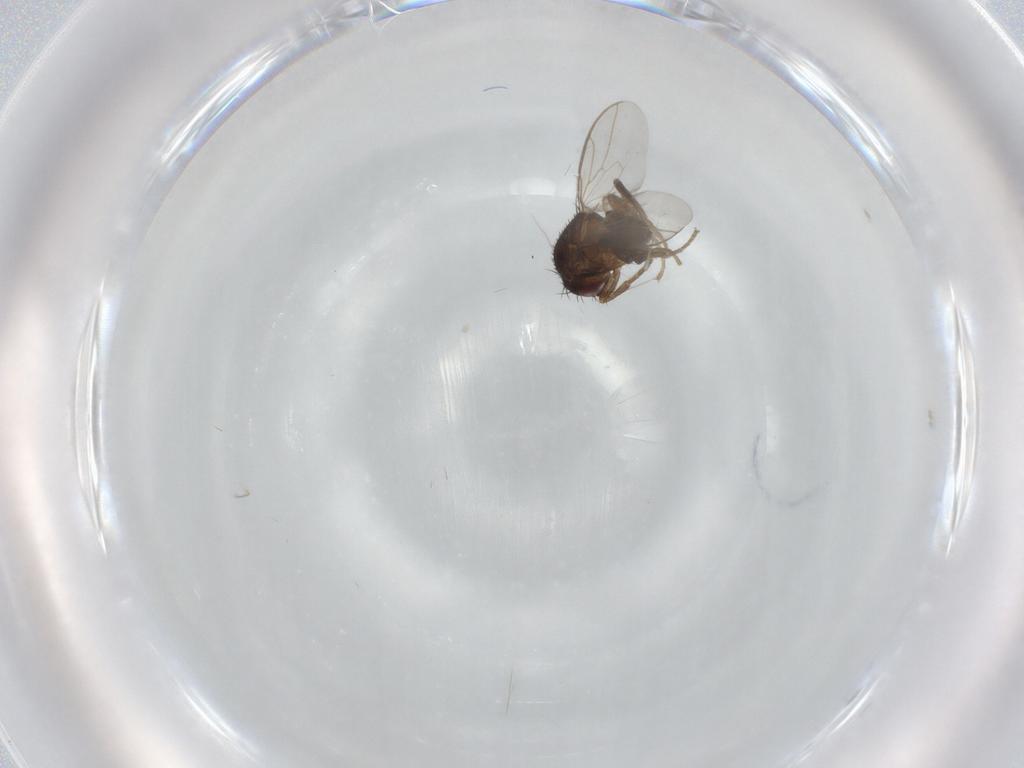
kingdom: Animalia
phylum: Arthropoda
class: Insecta
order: Diptera
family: Sphaeroceridae
